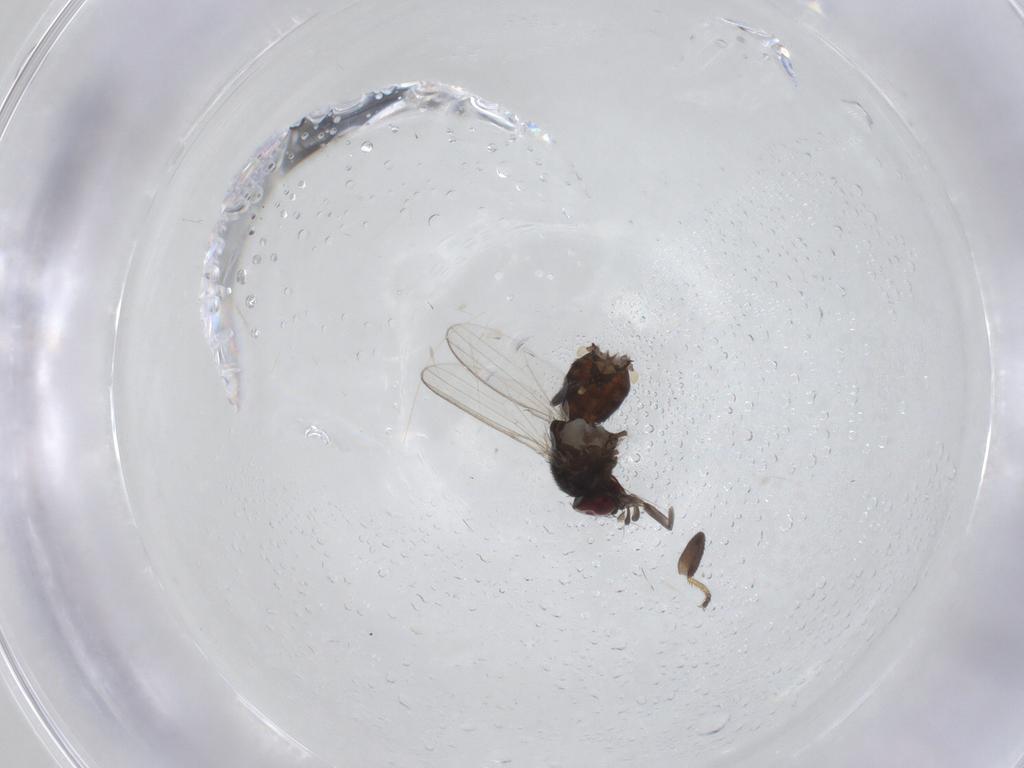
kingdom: Animalia
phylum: Arthropoda
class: Insecta
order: Diptera
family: Milichiidae
